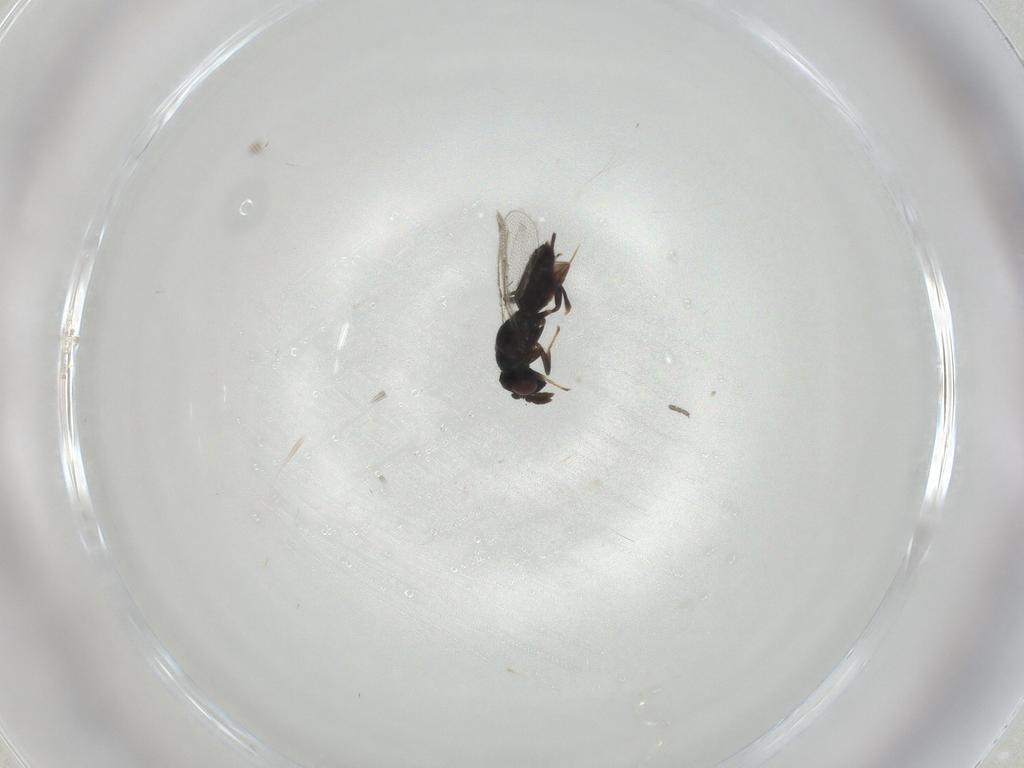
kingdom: Animalia
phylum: Arthropoda
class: Insecta
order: Hymenoptera
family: Pirenidae
